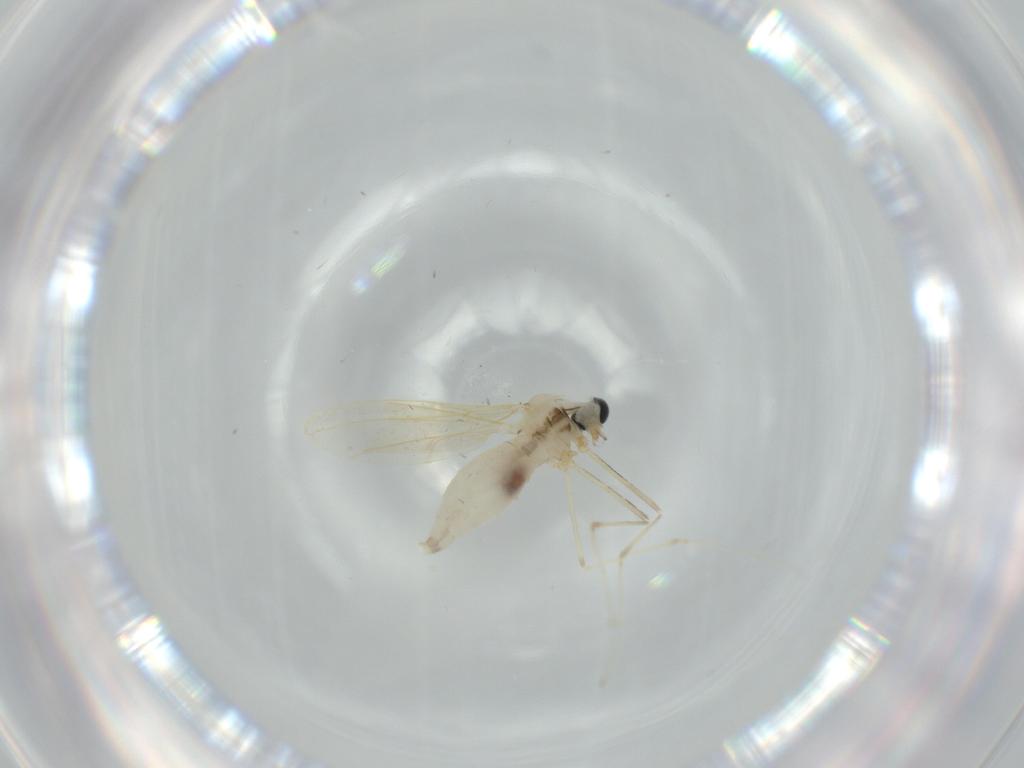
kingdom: Animalia
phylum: Arthropoda
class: Insecta
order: Diptera
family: Cecidomyiidae
